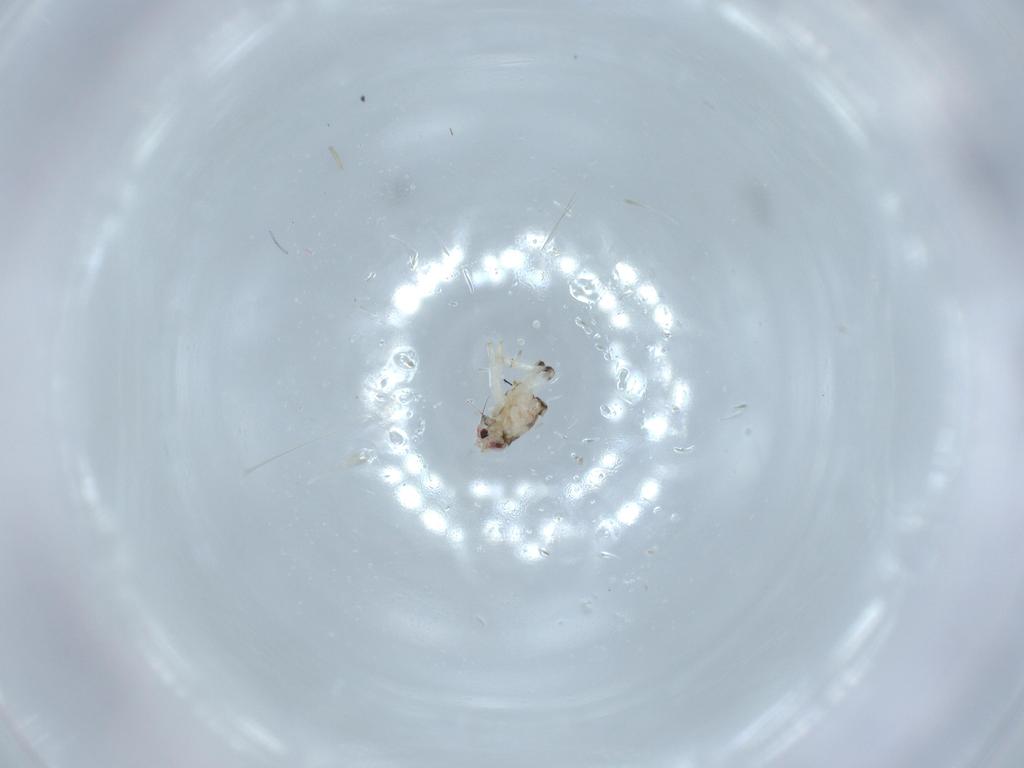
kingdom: Animalia
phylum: Arthropoda
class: Insecta
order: Hemiptera
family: Nogodinidae
